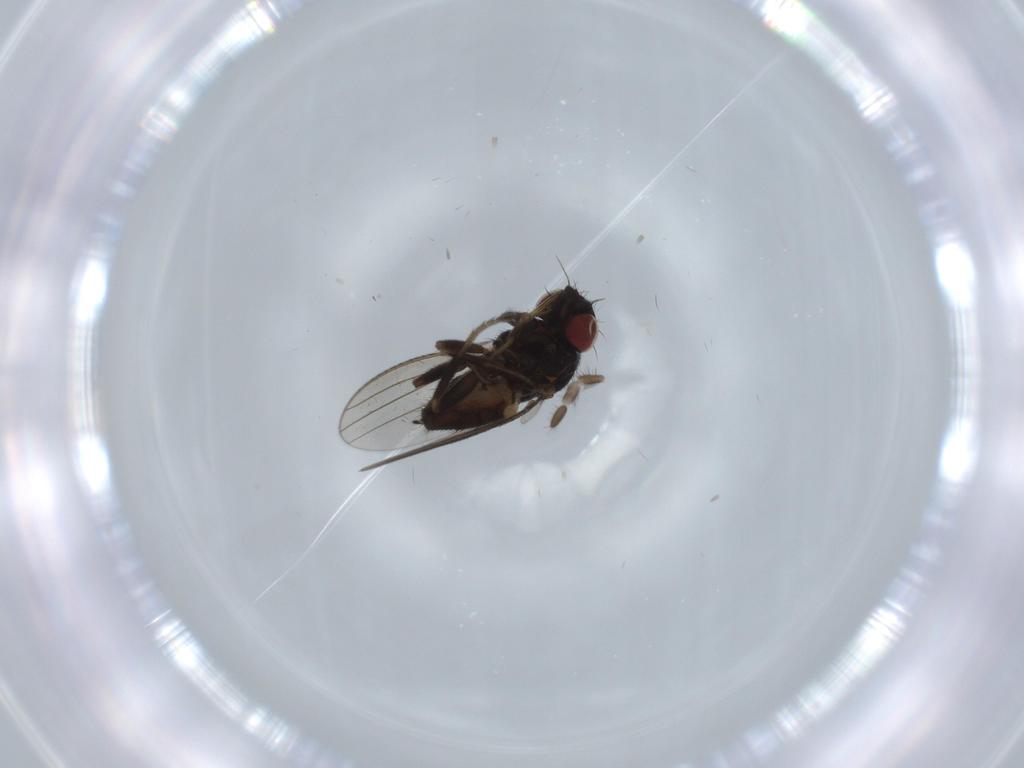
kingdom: Animalia
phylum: Arthropoda
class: Insecta
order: Diptera
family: Milichiidae
